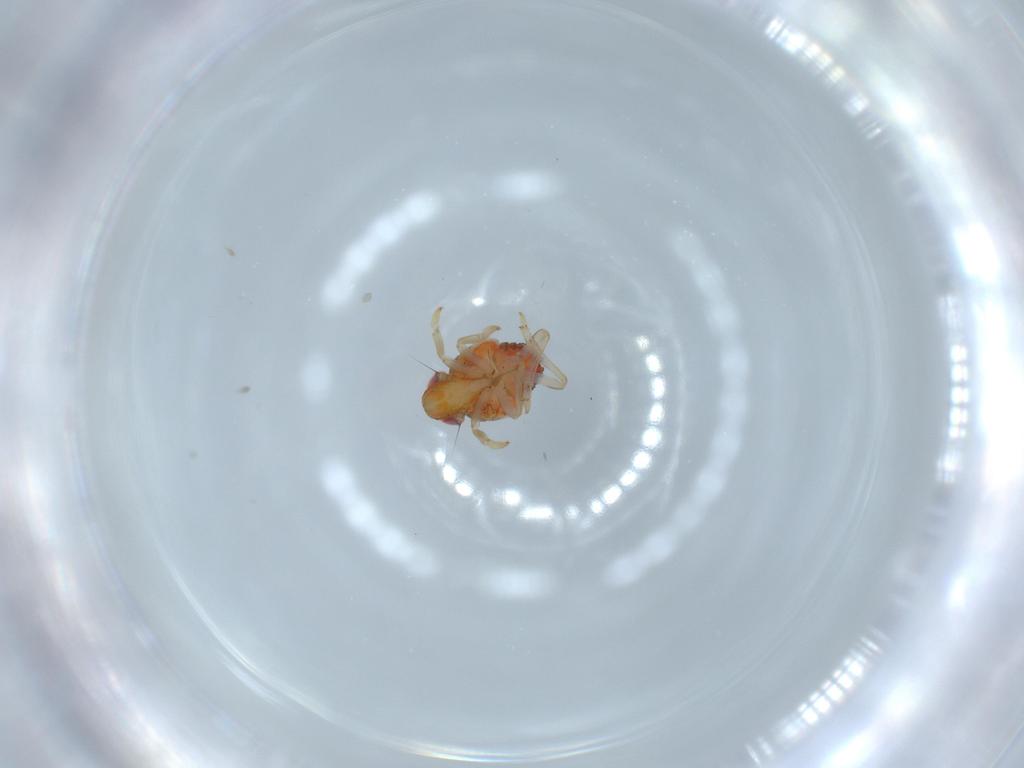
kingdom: Animalia
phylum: Arthropoda
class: Insecta
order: Hemiptera
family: Issidae
